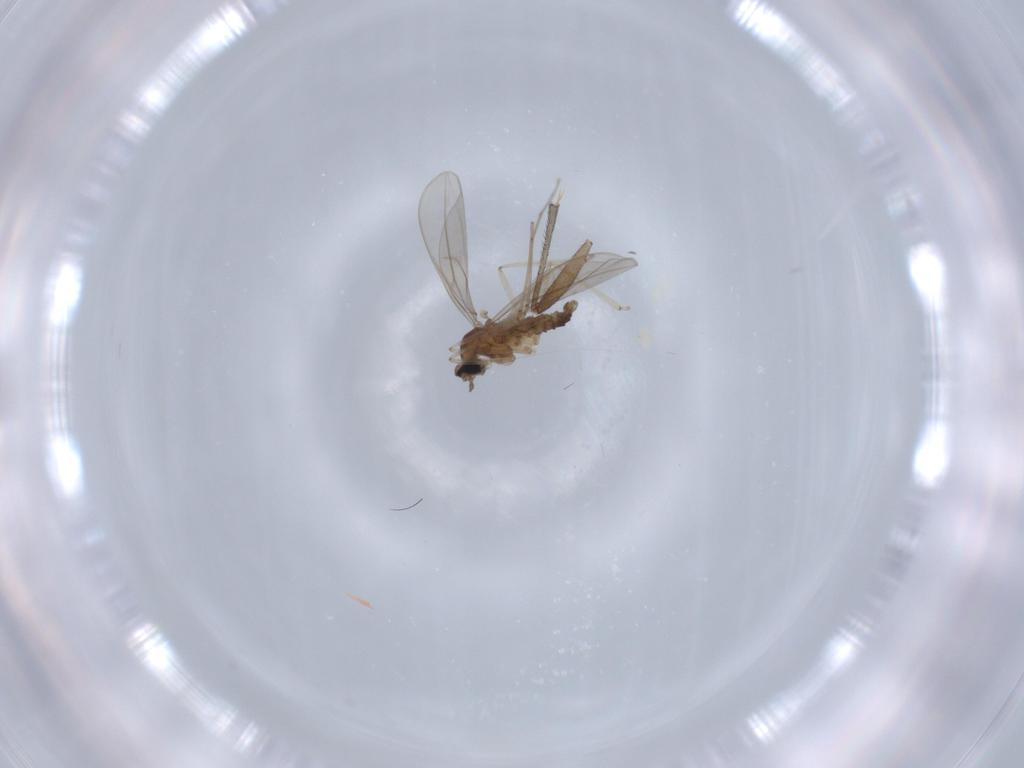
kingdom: Animalia
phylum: Arthropoda
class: Insecta
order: Diptera
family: Cecidomyiidae
